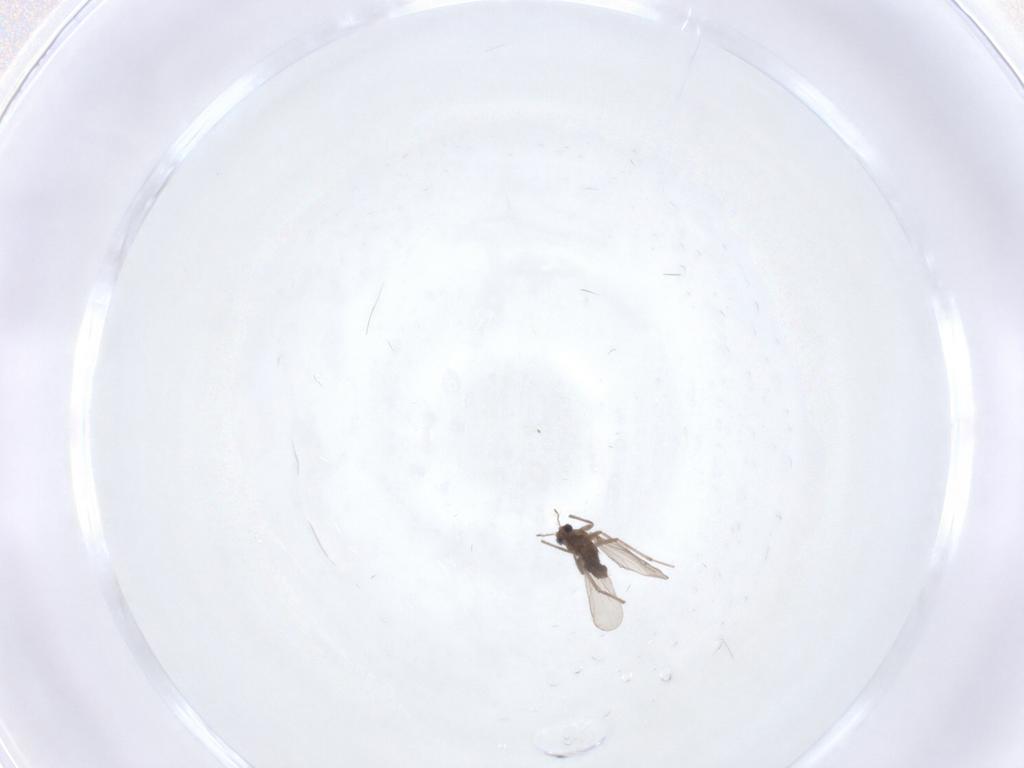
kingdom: Animalia
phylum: Arthropoda
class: Insecta
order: Diptera
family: Chironomidae
